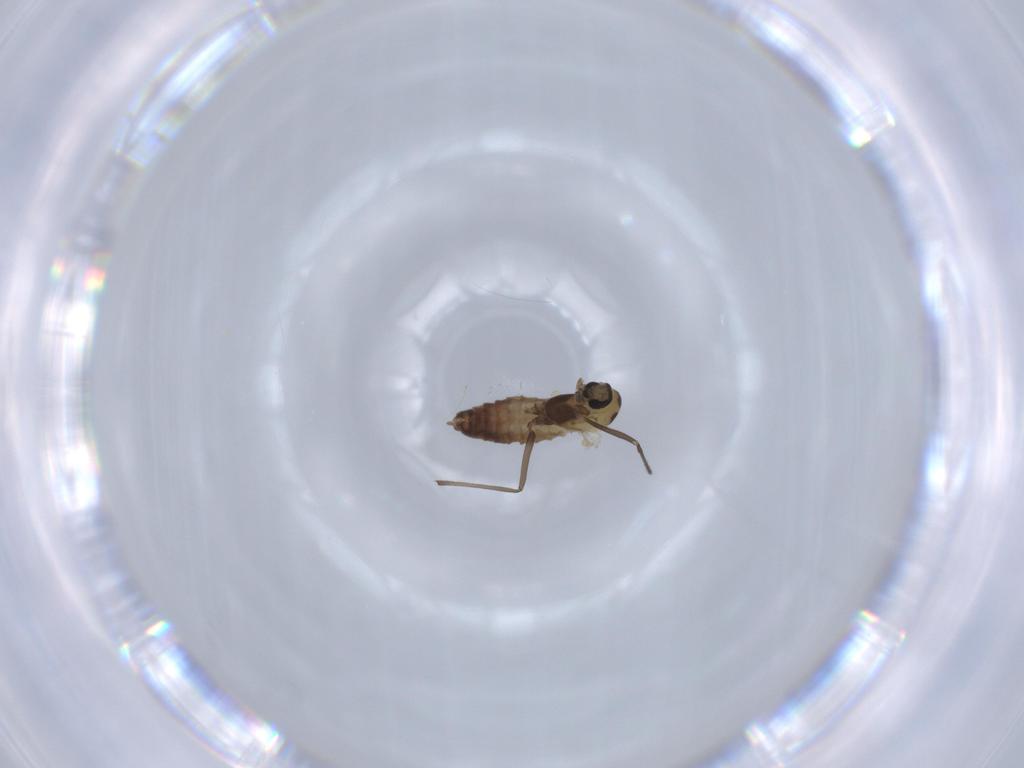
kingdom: Animalia
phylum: Arthropoda
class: Insecta
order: Diptera
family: Chironomidae
